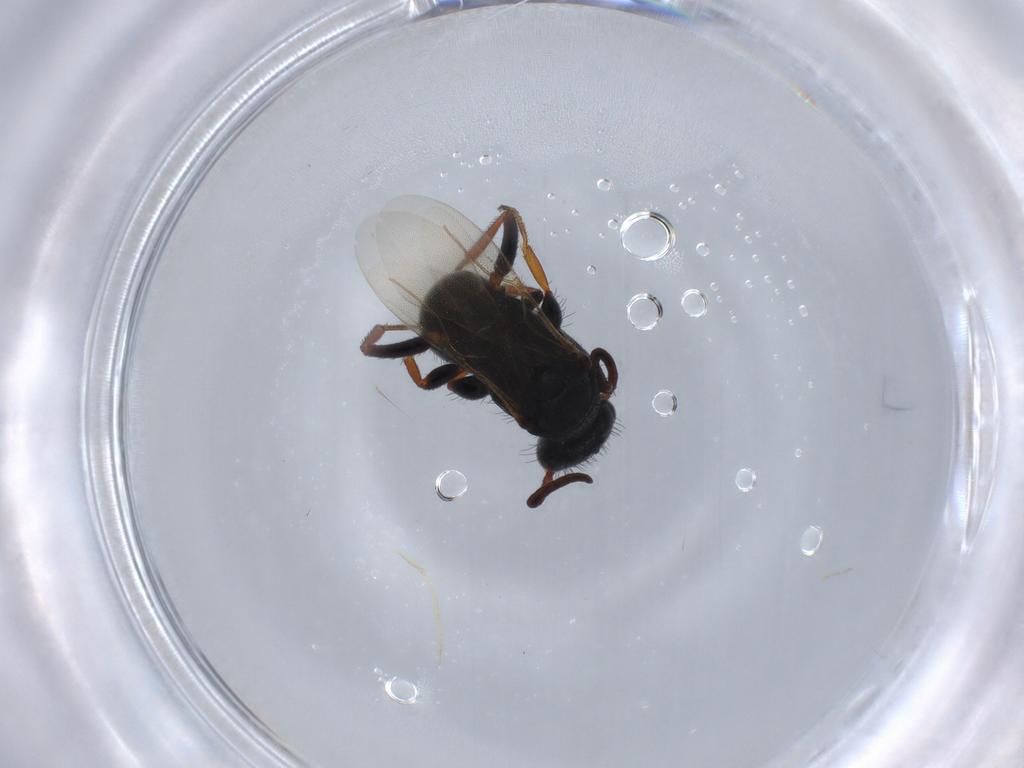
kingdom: Animalia
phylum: Arthropoda
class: Insecta
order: Hymenoptera
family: Bethylidae
